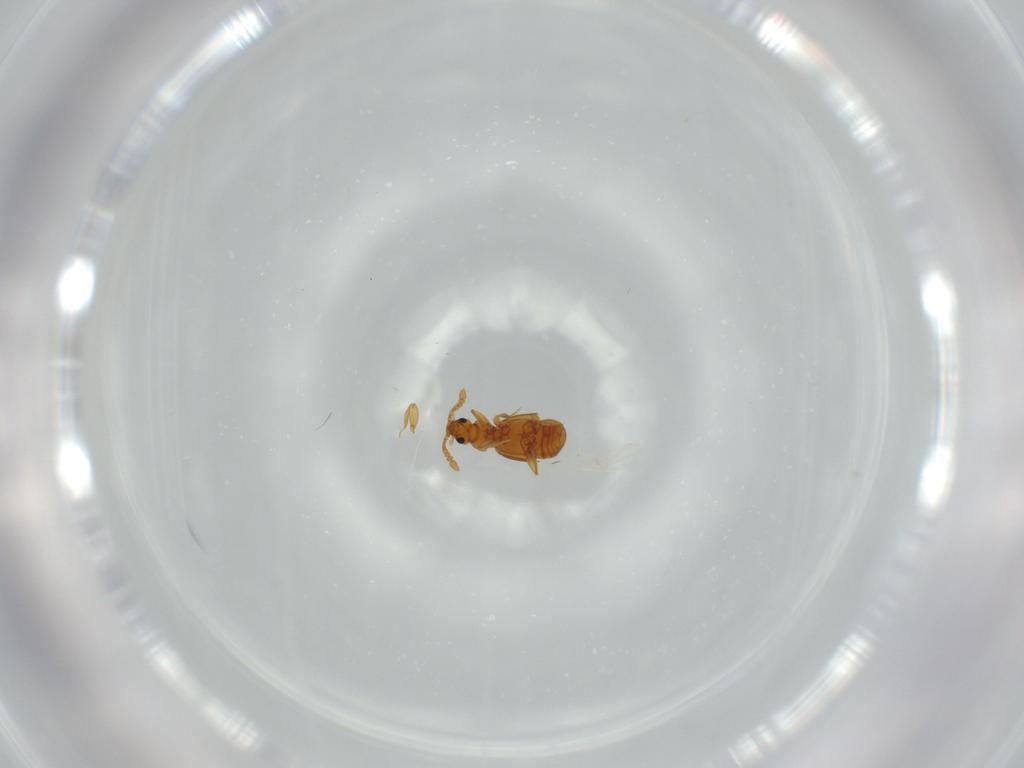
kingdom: Animalia
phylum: Arthropoda
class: Insecta
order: Coleoptera
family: Staphylinidae
